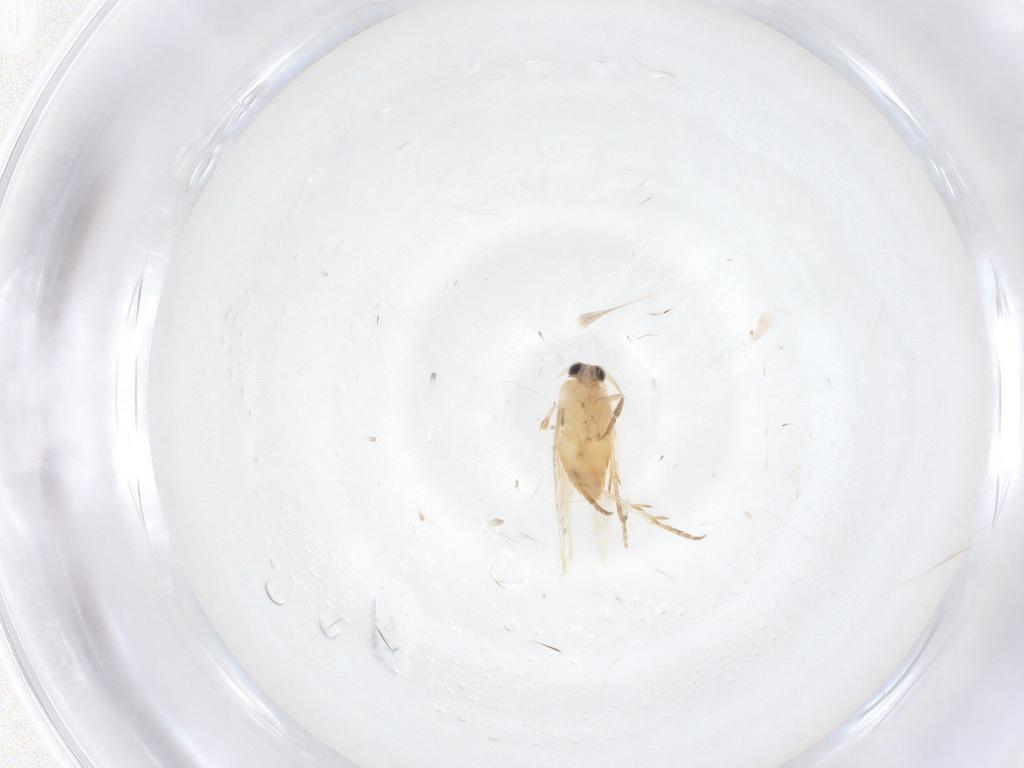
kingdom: Animalia
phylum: Arthropoda
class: Insecta
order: Lepidoptera
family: Nepticulidae
